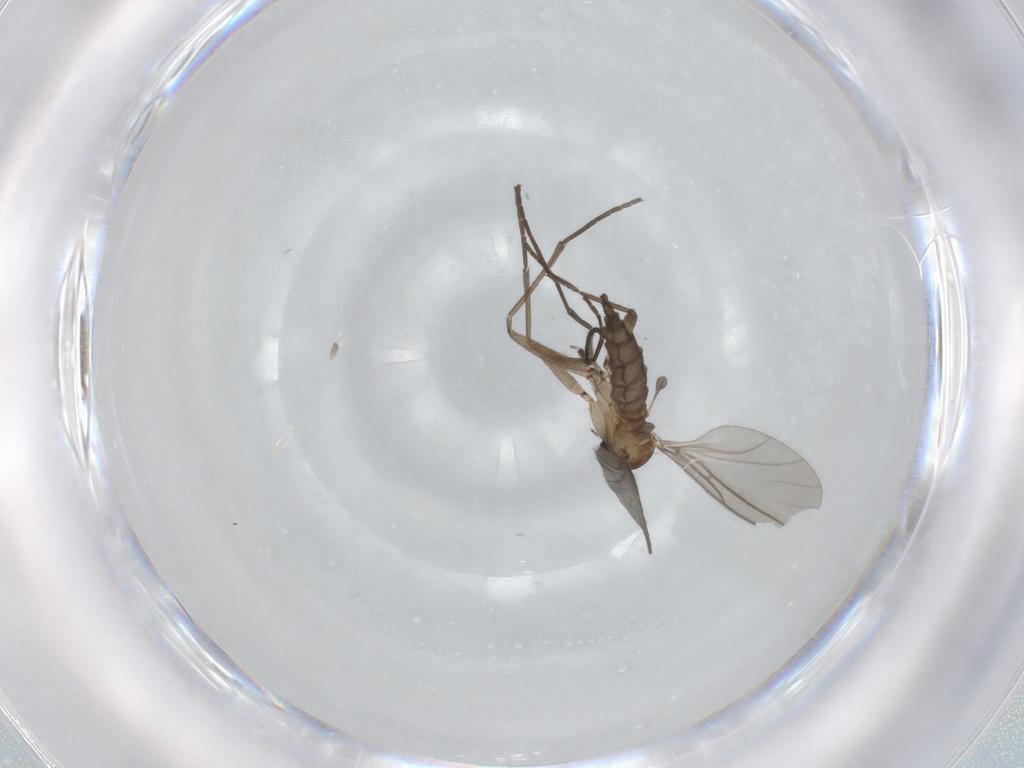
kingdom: Animalia
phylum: Arthropoda
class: Insecta
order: Diptera
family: Sciaridae
